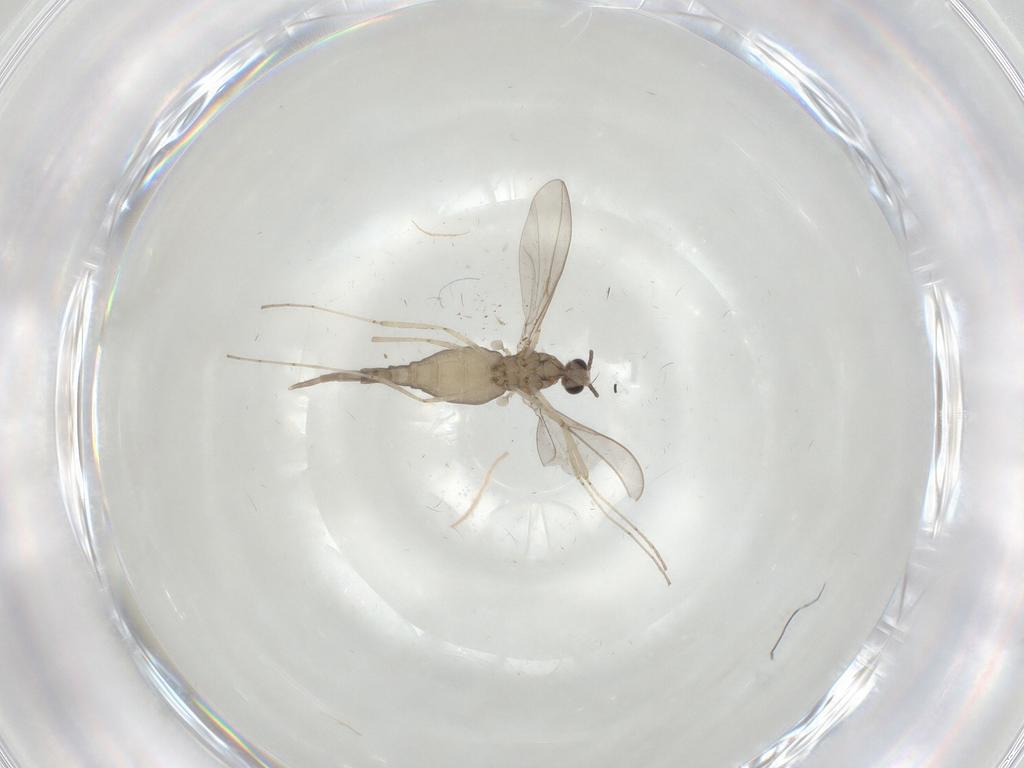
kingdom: Animalia
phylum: Arthropoda
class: Insecta
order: Diptera
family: Cecidomyiidae
